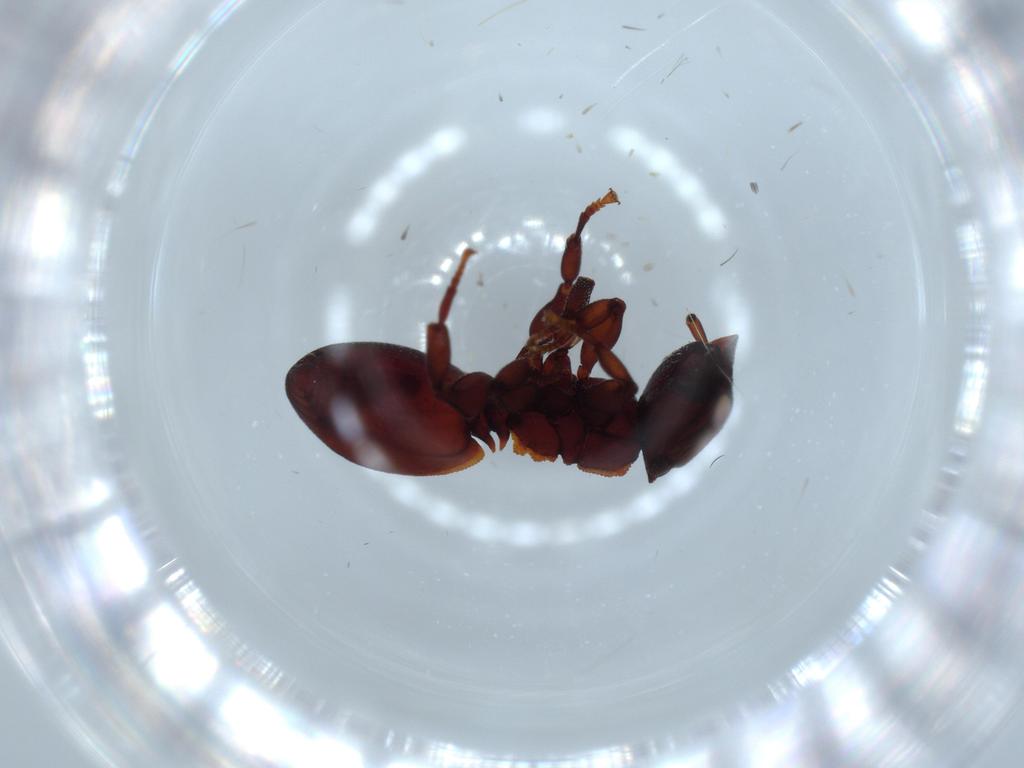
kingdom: Animalia
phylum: Arthropoda
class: Insecta
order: Hymenoptera
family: Formicidae
